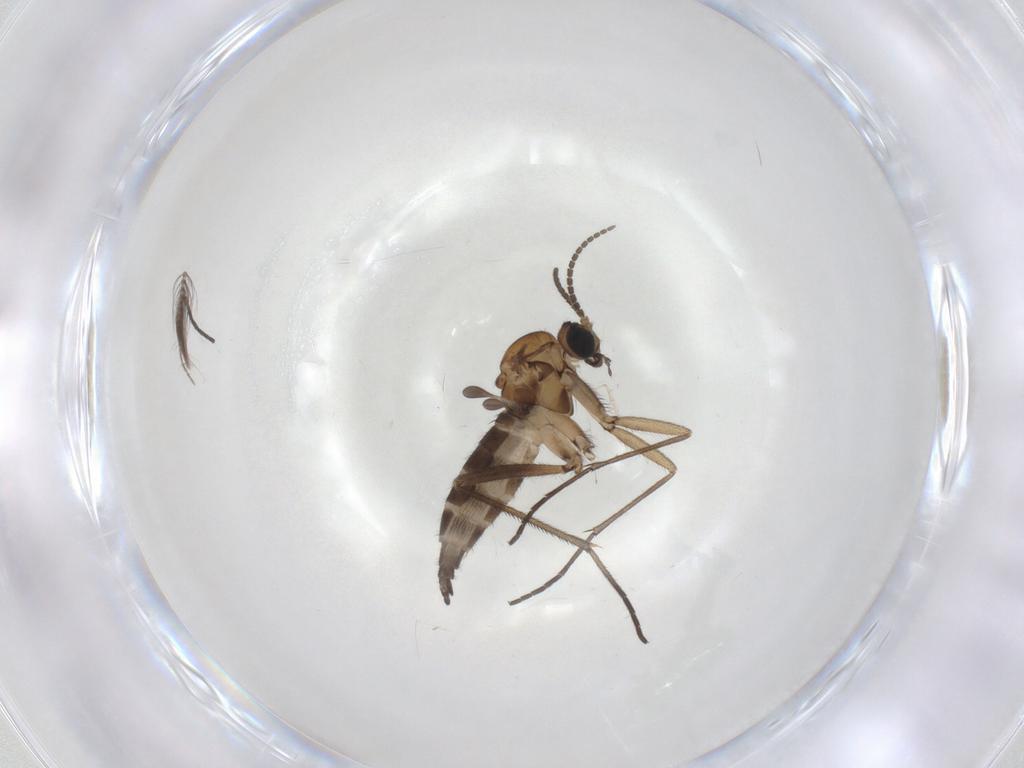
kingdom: Animalia
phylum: Arthropoda
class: Insecta
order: Diptera
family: Sciaridae
